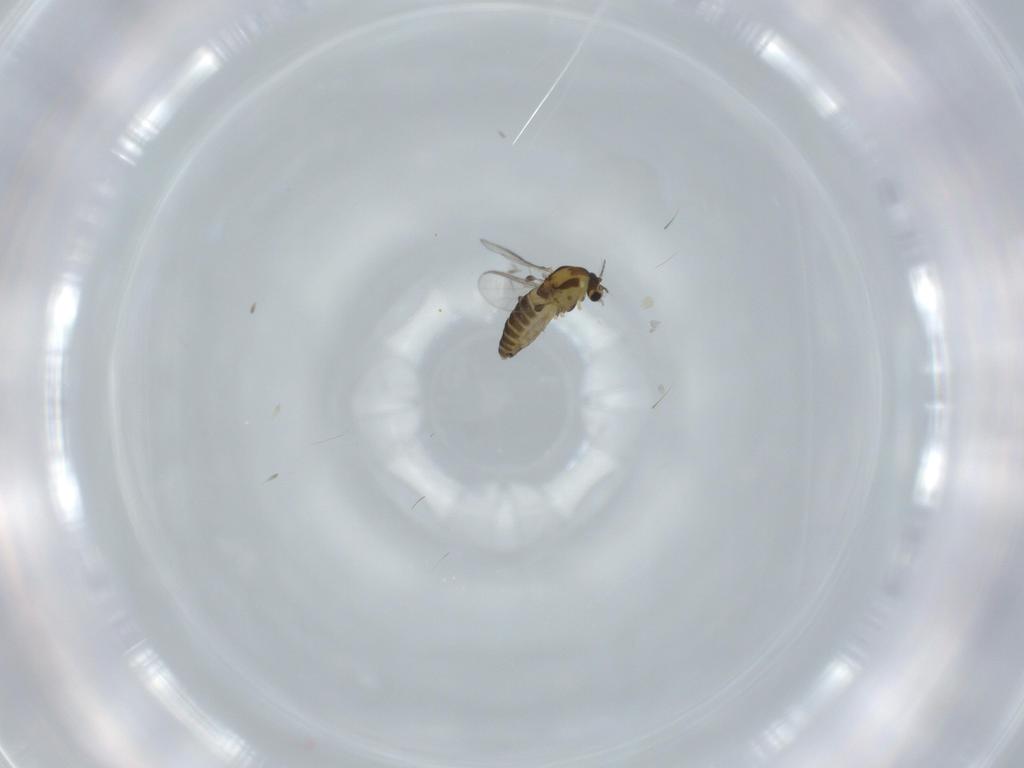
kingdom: Animalia
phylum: Arthropoda
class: Insecta
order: Diptera
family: Chironomidae
